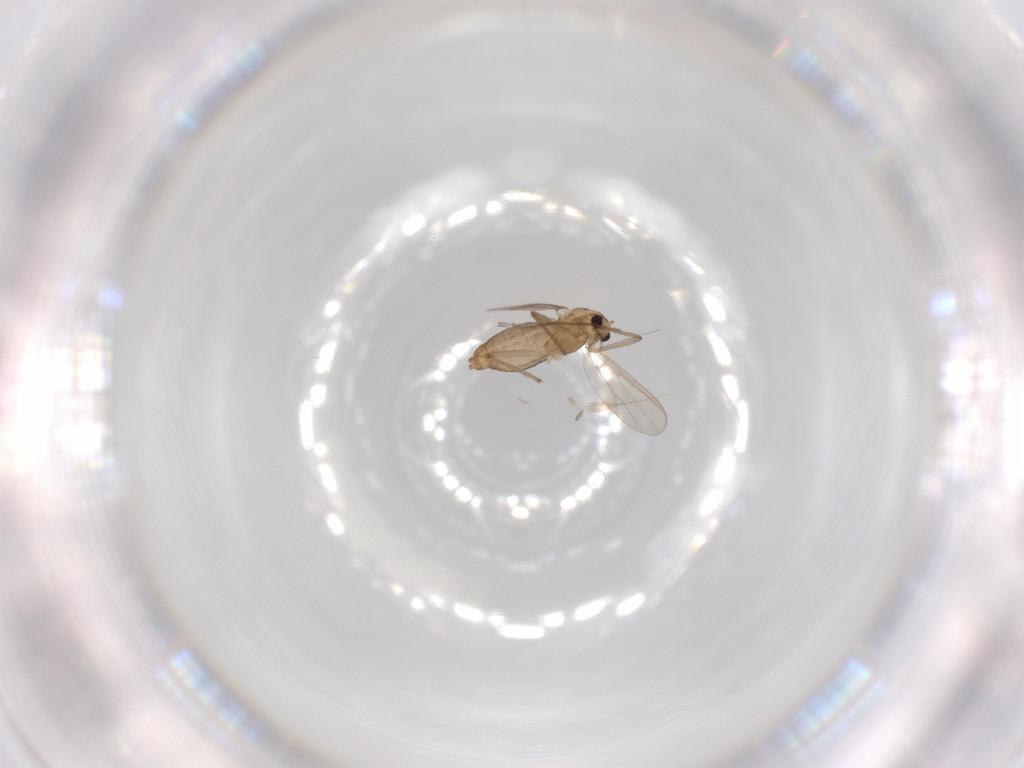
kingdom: Animalia
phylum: Arthropoda
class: Insecta
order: Diptera
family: Chironomidae
